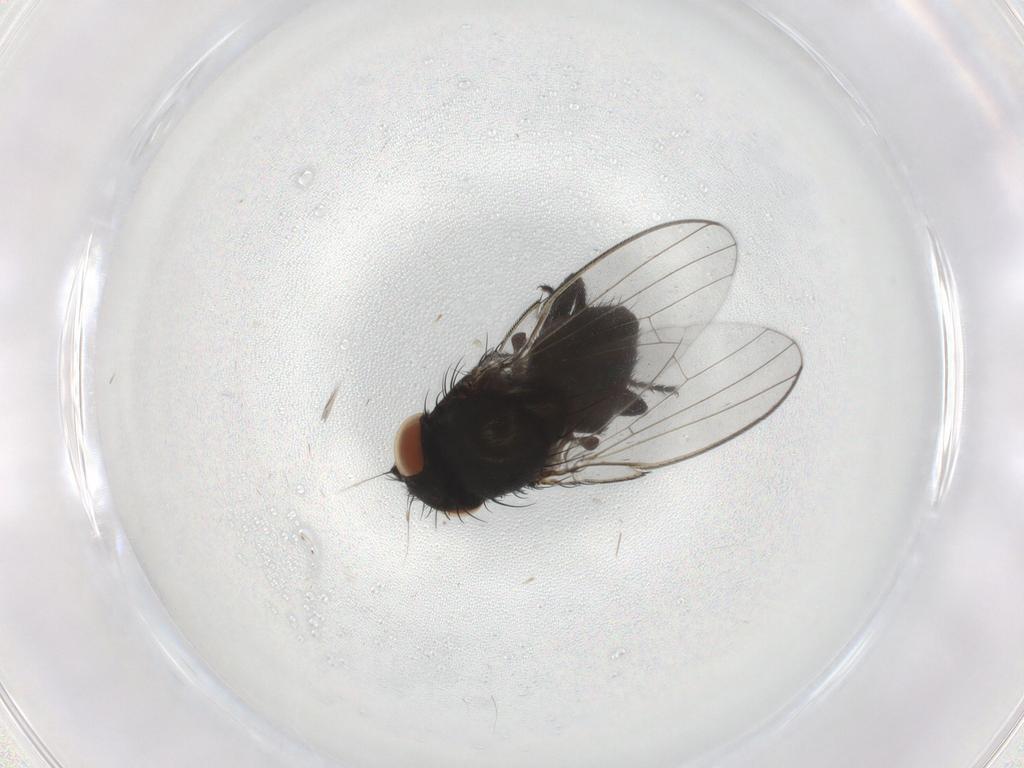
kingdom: Animalia
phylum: Arthropoda
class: Insecta
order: Diptera
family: Milichiidae
